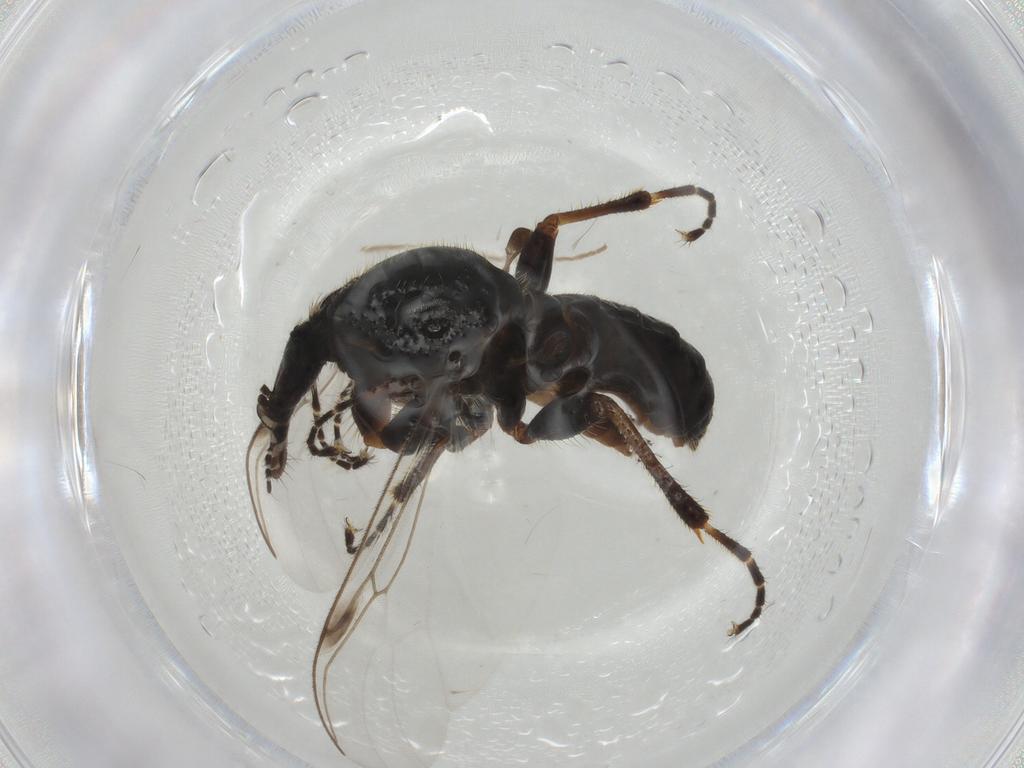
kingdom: Animalia
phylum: Arthropoda
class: Insecta
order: Diptera
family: Bibionidae
